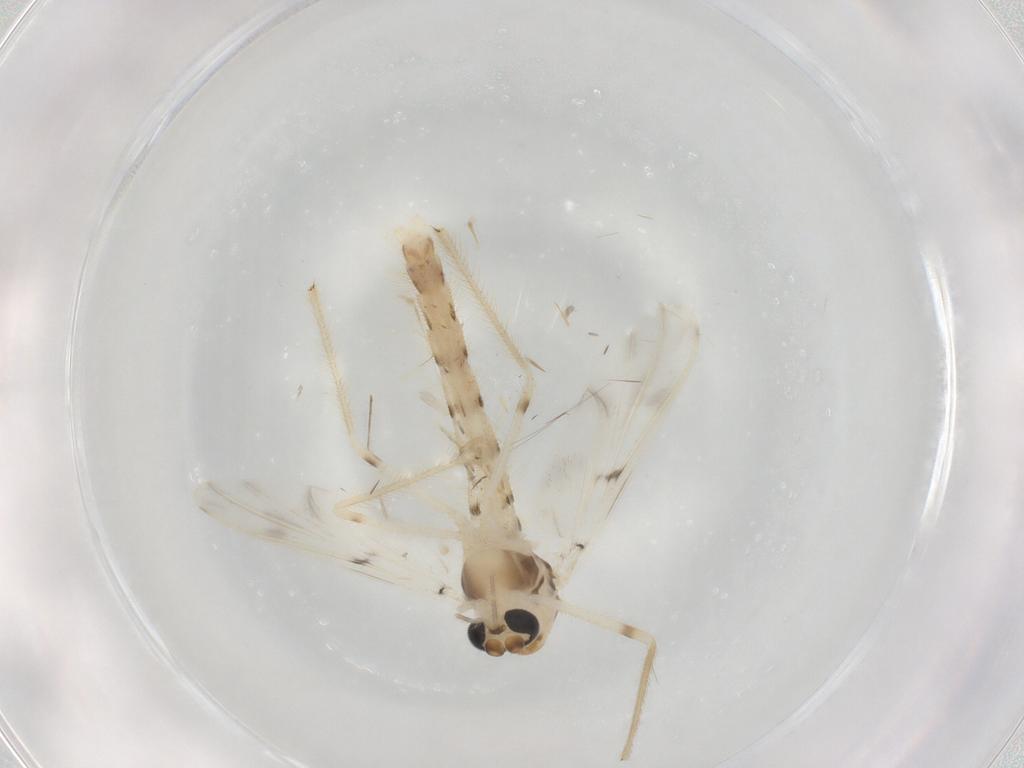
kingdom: Animalia
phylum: Arthropoda
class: Insecta
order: Diptera
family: Chironomidae
